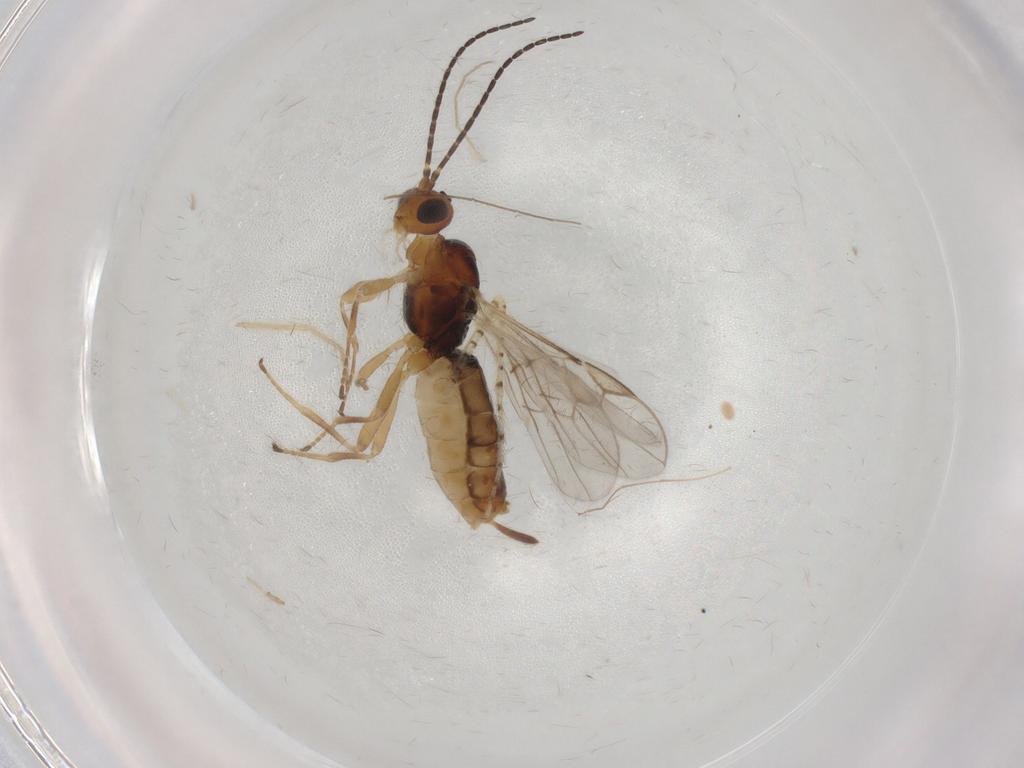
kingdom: Animalia
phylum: Arthropoda
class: Insecta
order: Hymenoptera
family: Braconidae
